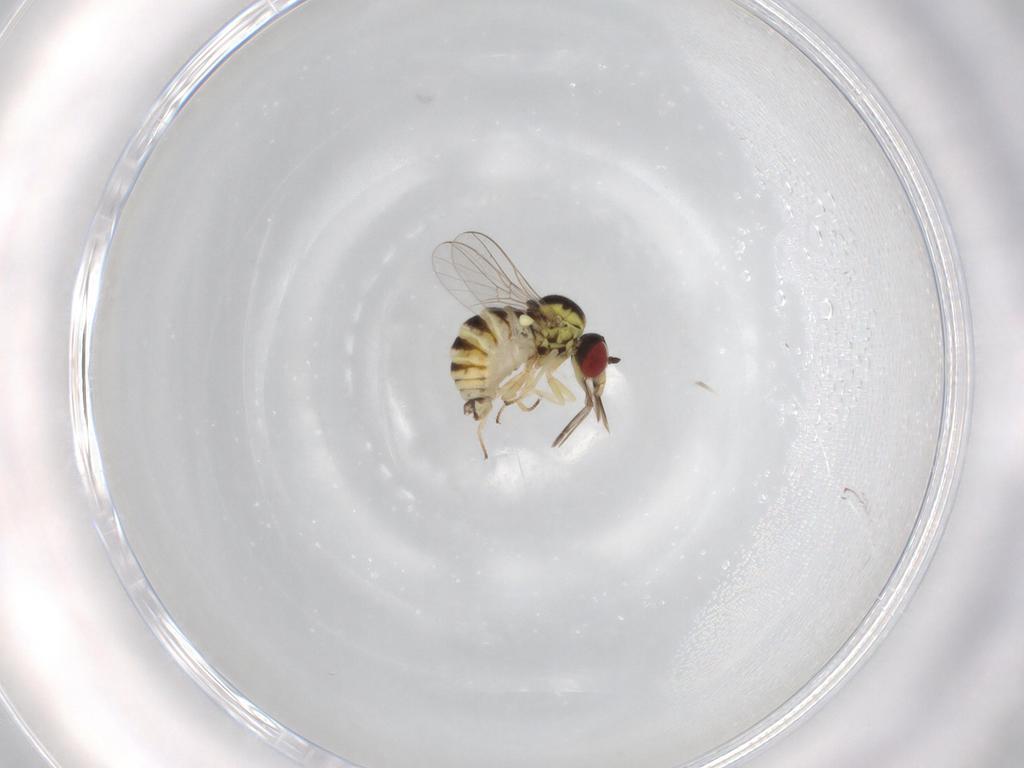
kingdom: Animalia
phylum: Arthropoda
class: Insecta
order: Diptera
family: Bombyliidae
